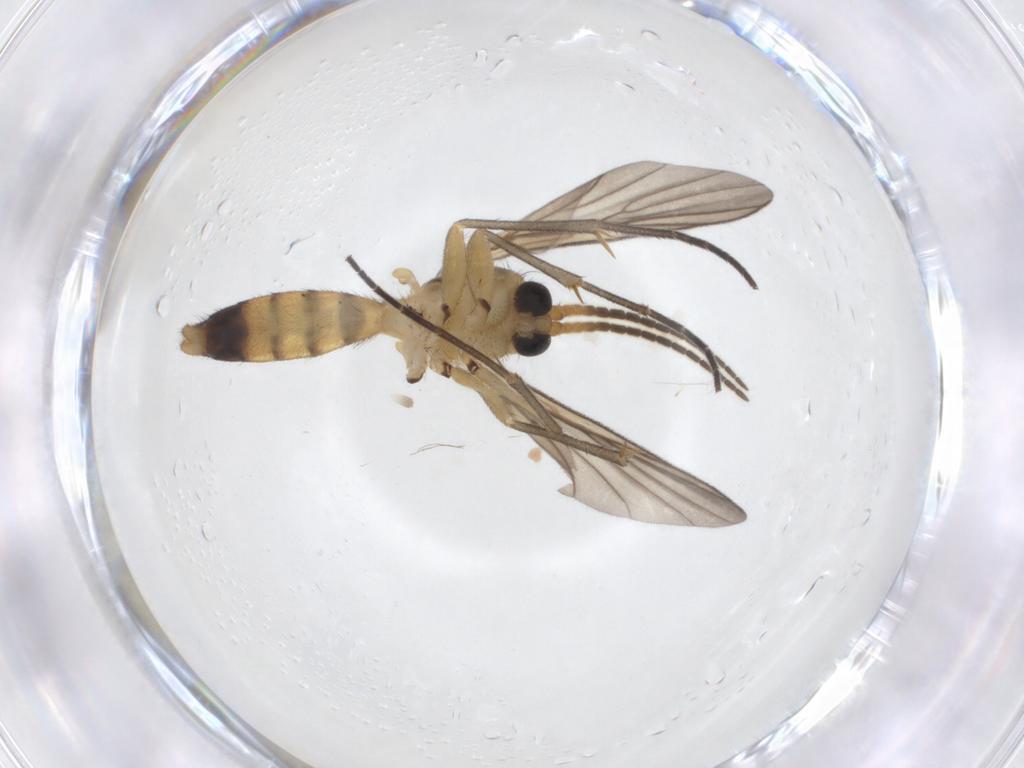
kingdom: Animalia
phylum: Arthropoda
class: Insecta
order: Diptera
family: Mycetophilidae
